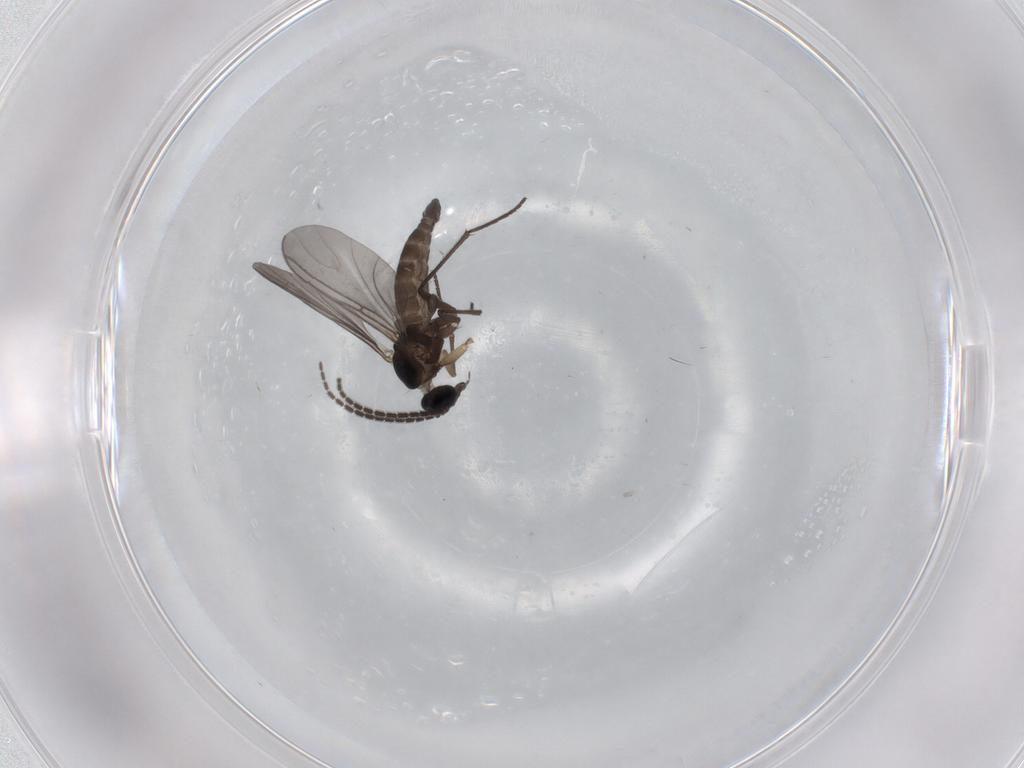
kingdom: Animalia
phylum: Arthropoda
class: Insecta
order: Diptera
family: Sciaridae
